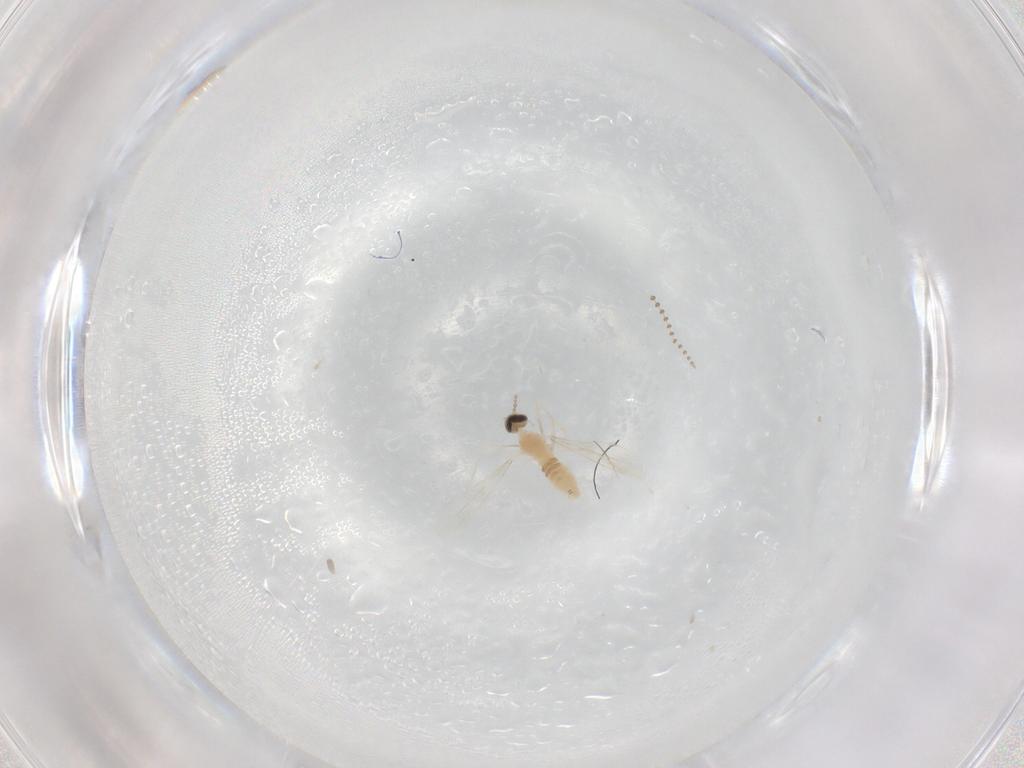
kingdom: Animalia
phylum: Arthropoda
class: Insecta
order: Diptera
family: Cecidomyiidae
